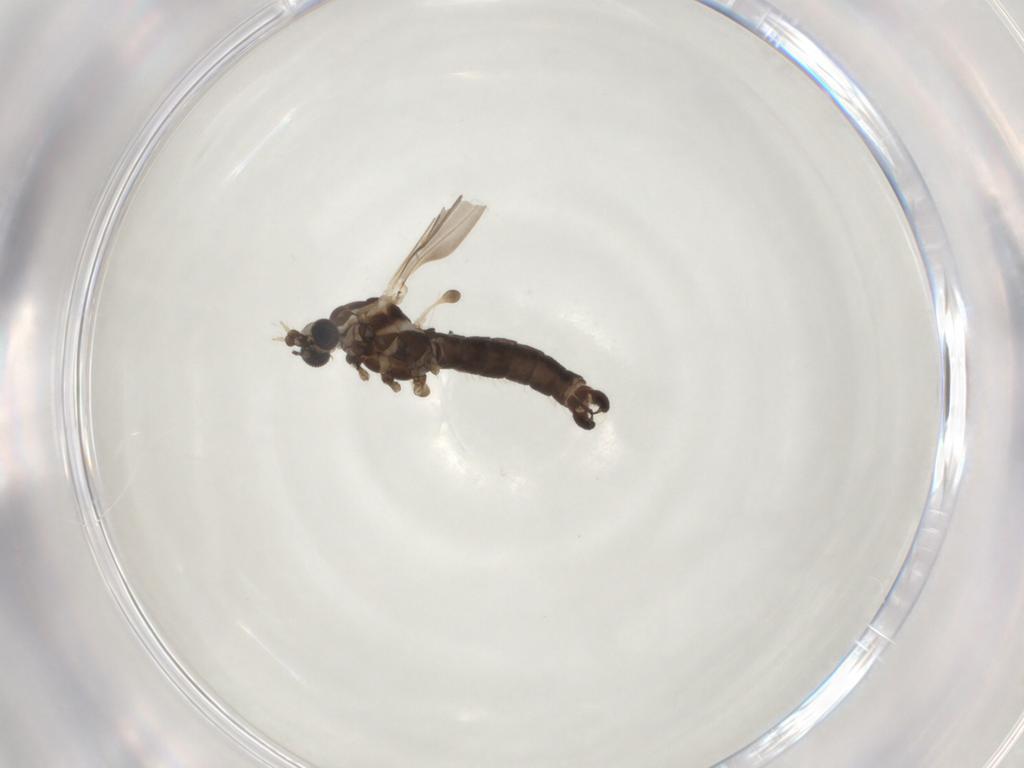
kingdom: Animalia
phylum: Arthropoda
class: Insecta
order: Diptera
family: Limoniidae
